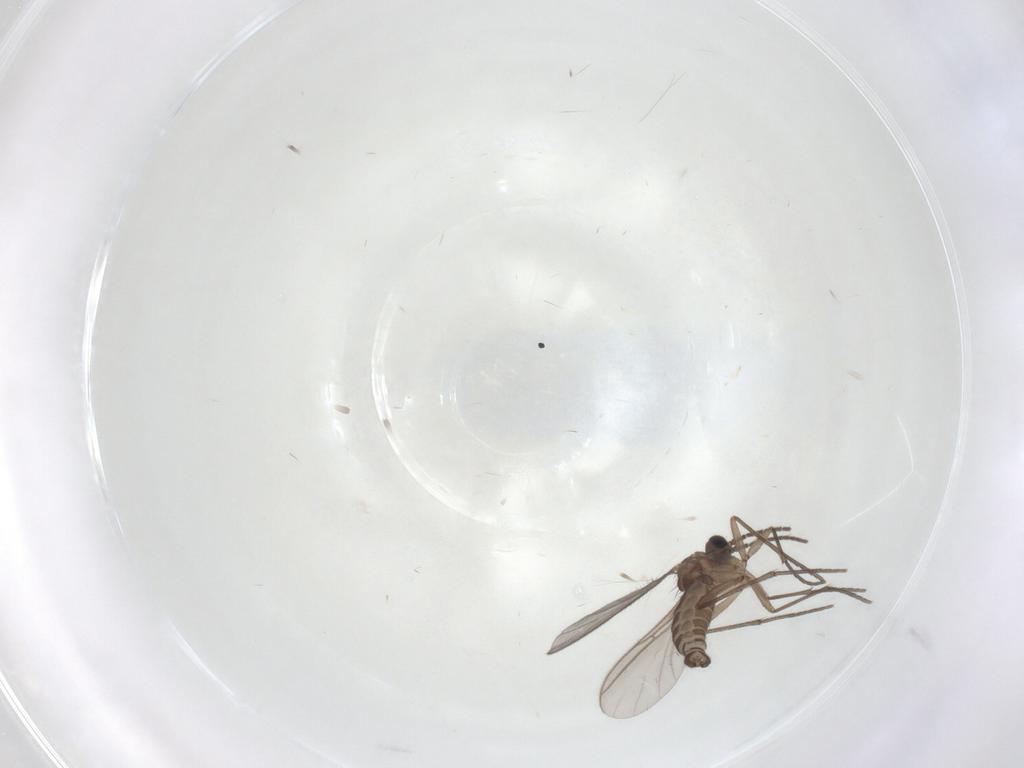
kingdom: Animalia
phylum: Arthropoda
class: Insecta
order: Diptera
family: Sciaridae
